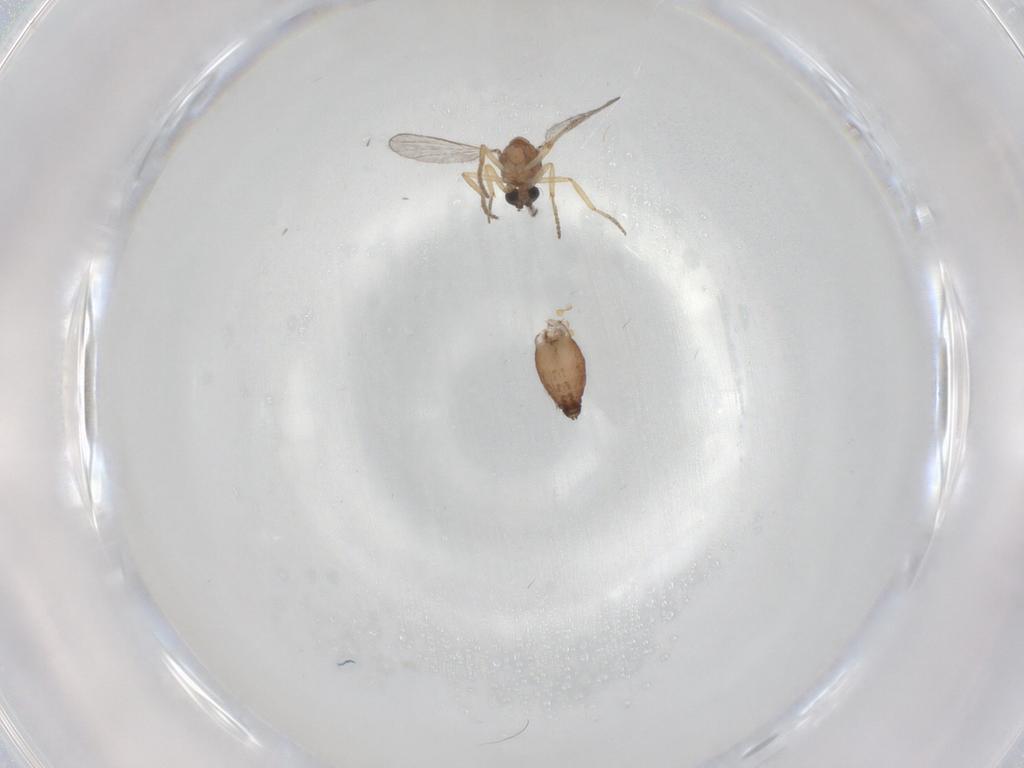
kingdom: Animalia
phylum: Arthropoda
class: Insecta
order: Diptera
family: Ceratopogonidae
